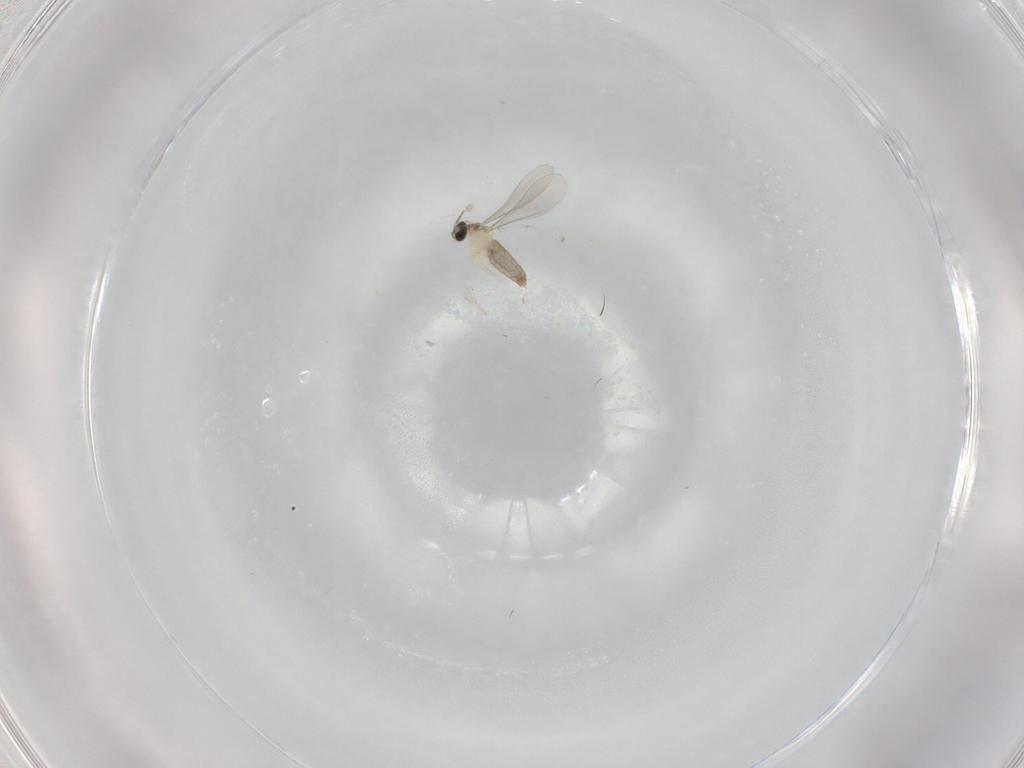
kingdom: Animalia
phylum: Arthropoda
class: Insecta
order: Diptera
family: Cecidomyiidae
